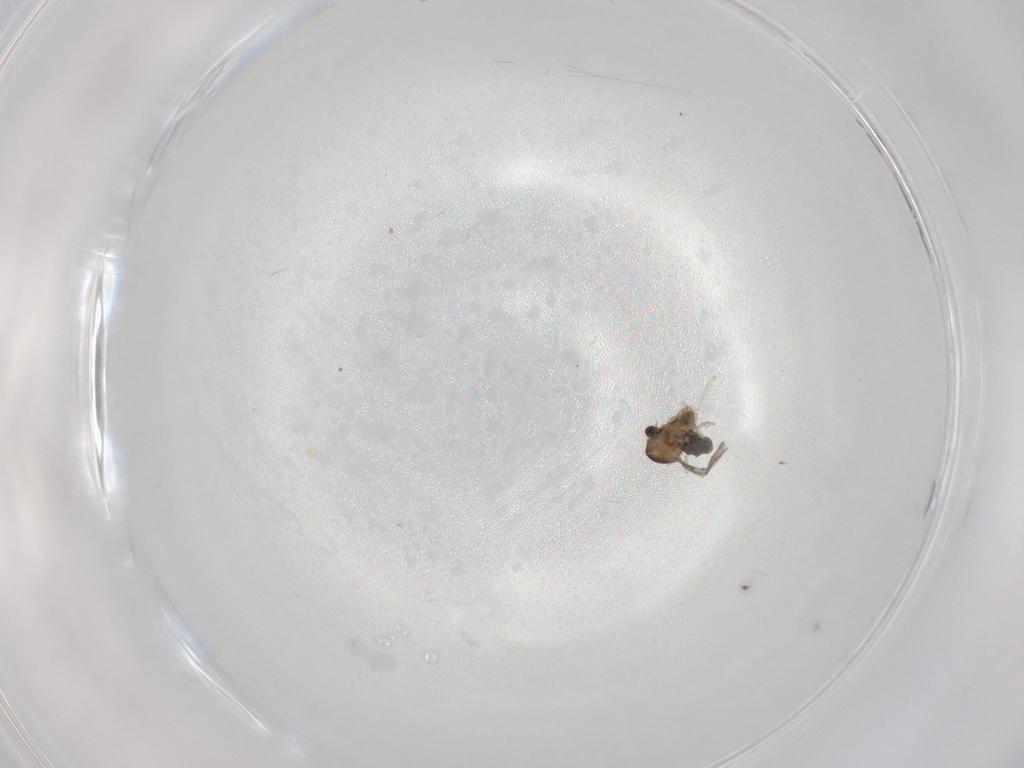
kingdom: Animalia
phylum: Arthropoda
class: Insecta
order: Diptera
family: Cecidomyiidae
